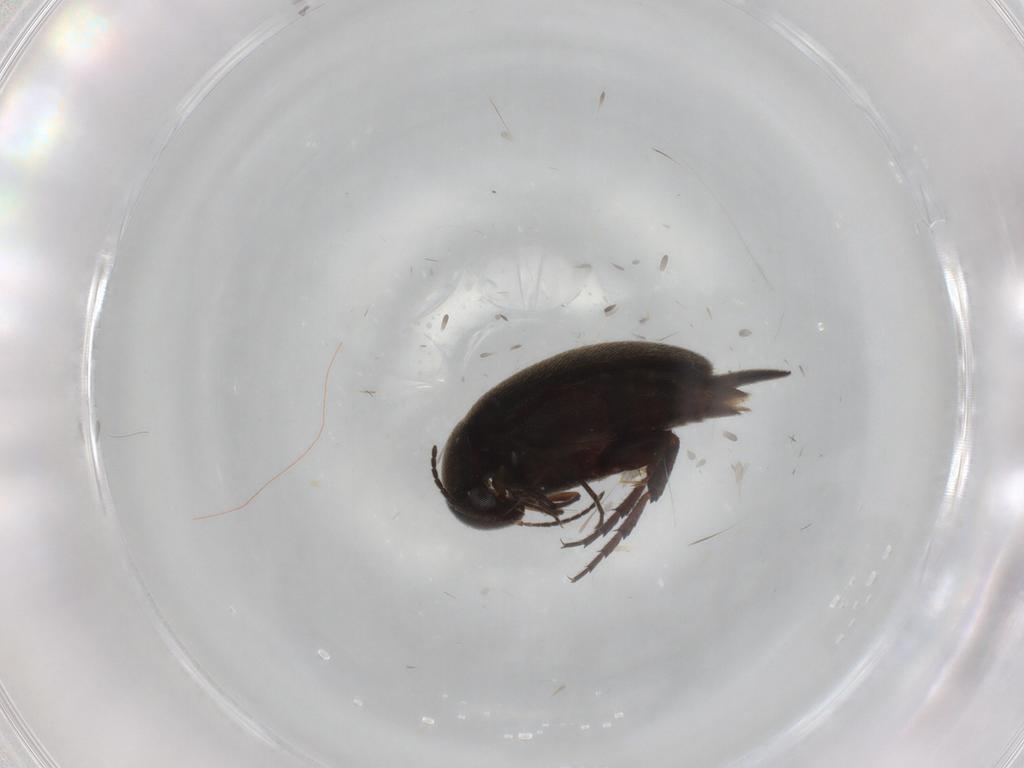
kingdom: Animalia
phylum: Arthropoda
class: Insecta
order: Coleoptera
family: Mordellidae
